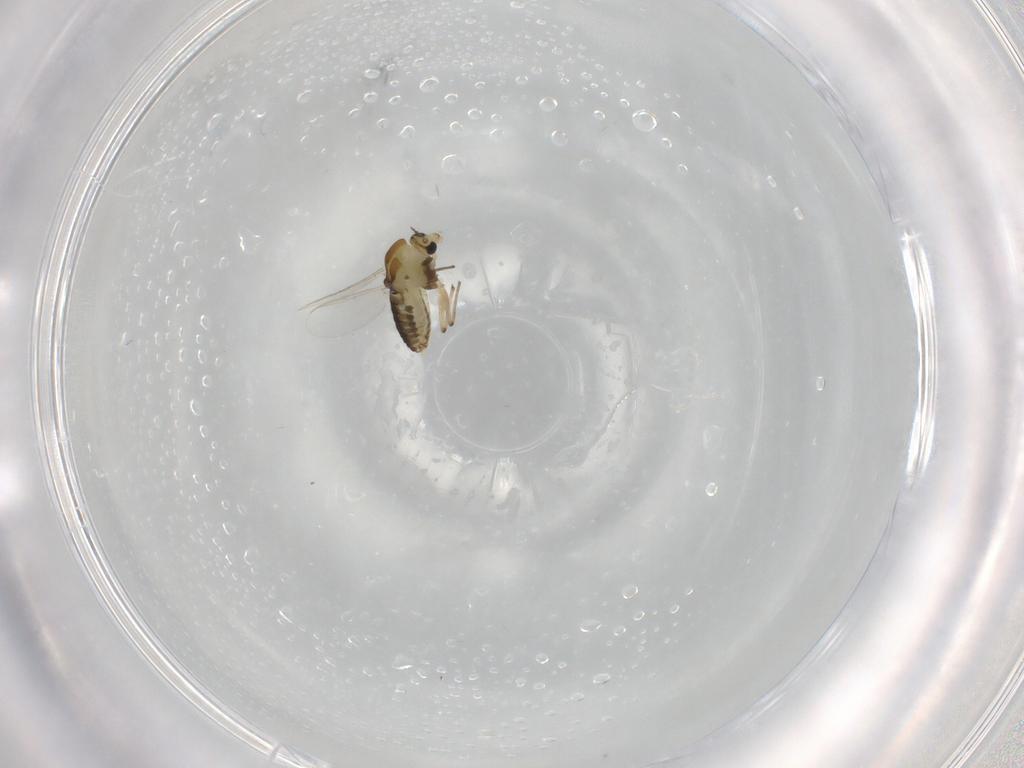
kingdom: Animalia
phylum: Arthropoda
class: Insecta
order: Diptera
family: Chironomidae
